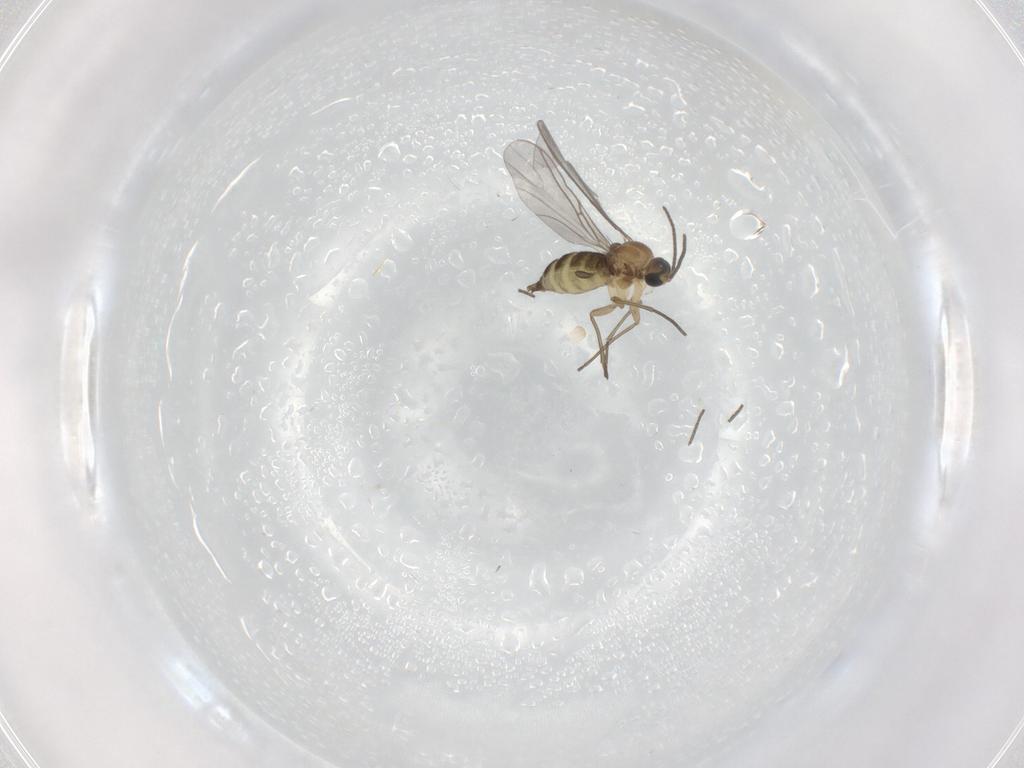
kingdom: Animalia
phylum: Arthropoda
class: Insecta
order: Diptera
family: Sciaridae
